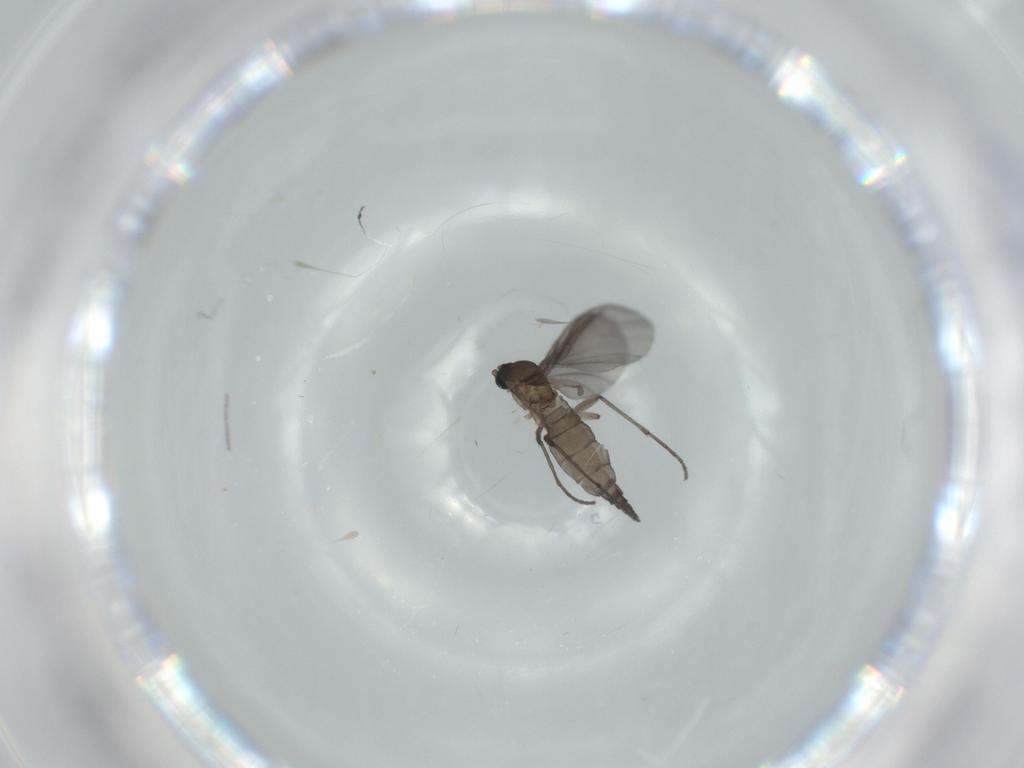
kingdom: Animalia
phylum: Arthropoda
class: Insecta
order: Diptera
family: Sciaridae
